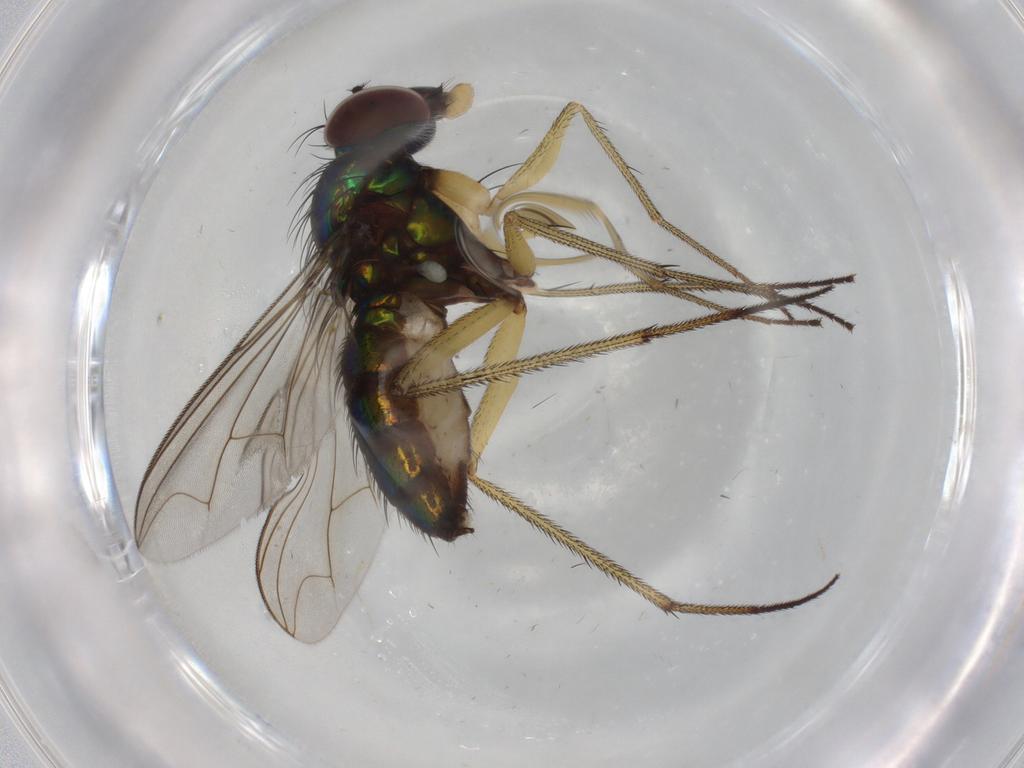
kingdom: Animalia
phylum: Arthropoda
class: Insecta
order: Diptera
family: Dolichopodidae
